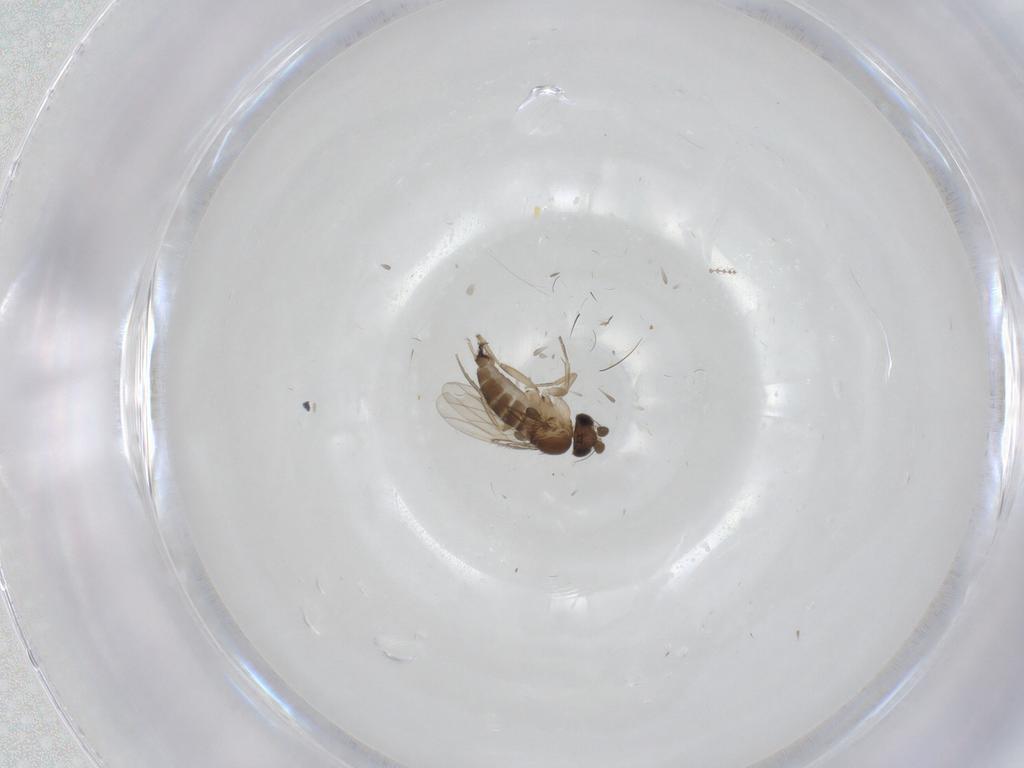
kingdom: Animalia
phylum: Arthropoda
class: Insecta
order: Diptera
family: Phoridae
